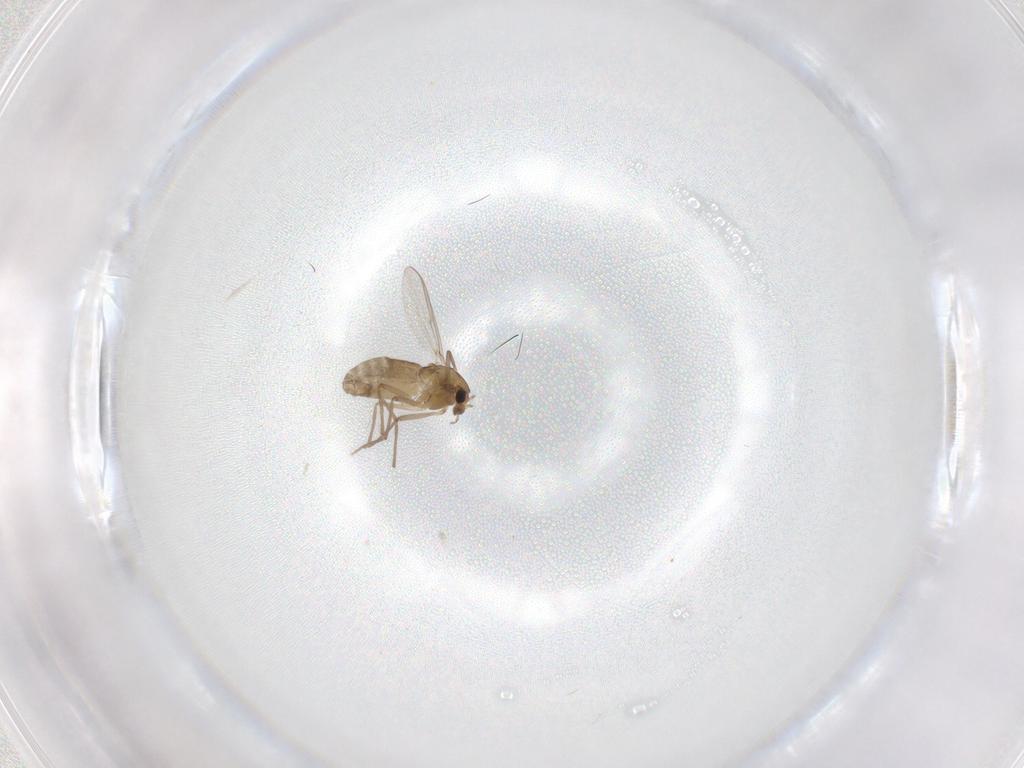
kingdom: Animalia
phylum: Arthropoda
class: Insecta
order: Diptera
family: Chironomidae
